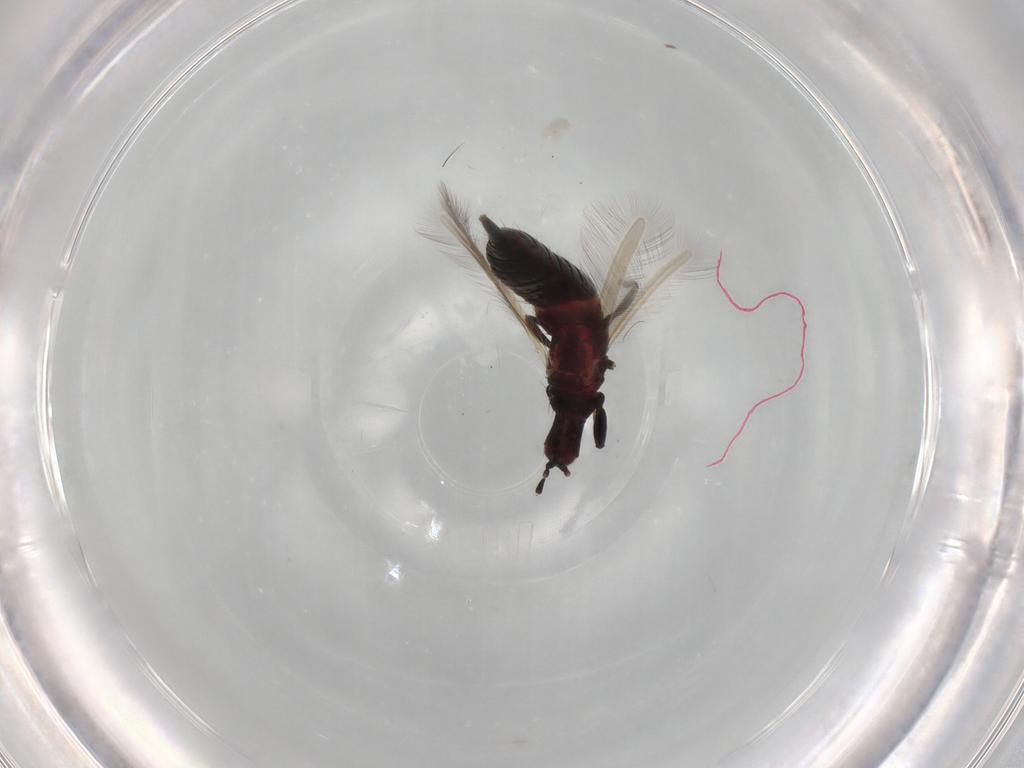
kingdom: Animalia
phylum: Arthropoda
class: Insecta
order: Thysanoptera
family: Phlaeothripidae
